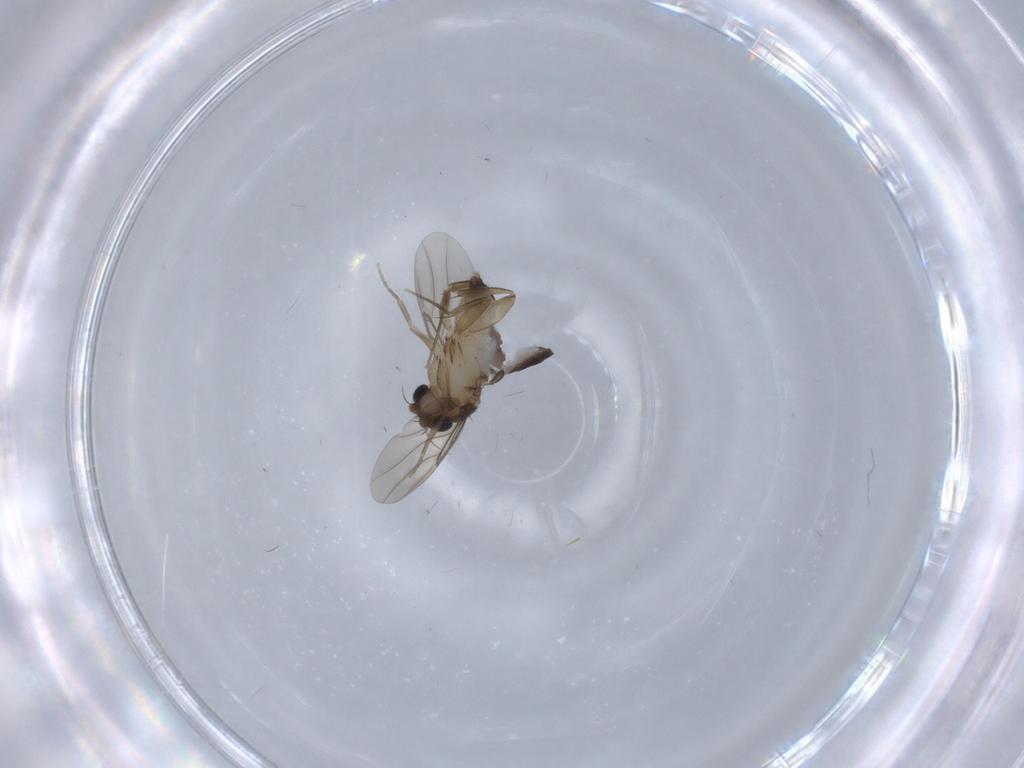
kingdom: Animalia
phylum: Arthropoda
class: Insecta
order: Diptera
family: Phoridae
